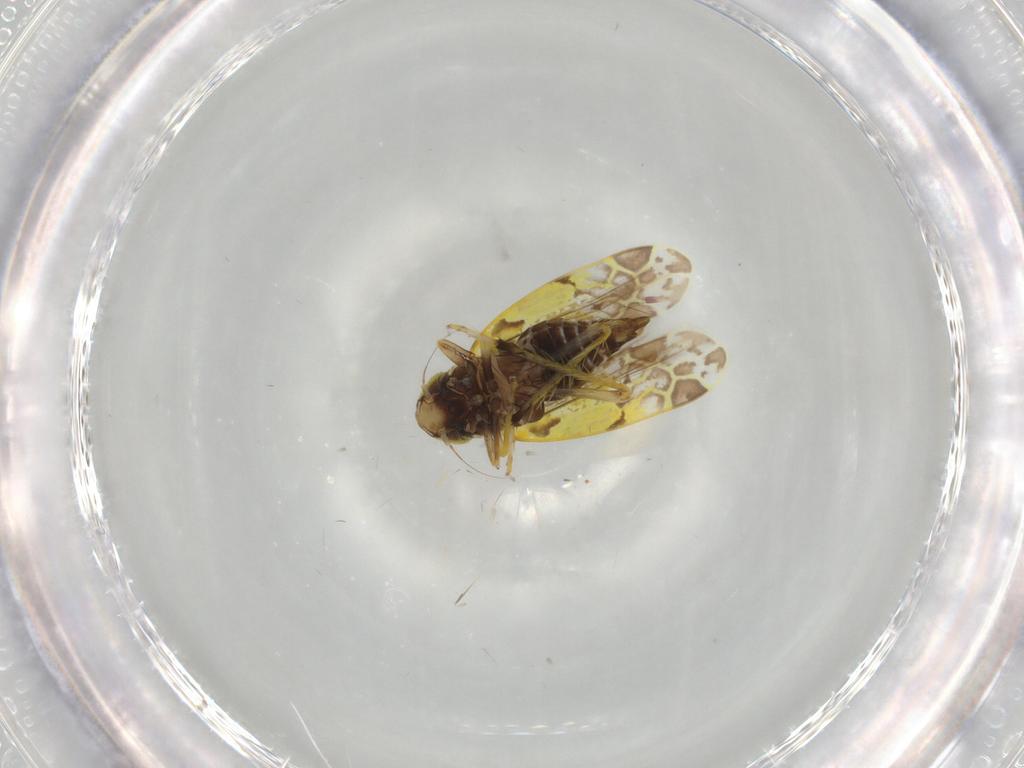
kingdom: Animalia
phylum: Arthropoda
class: Insecta
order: Hemiptera
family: Cicadellidae
